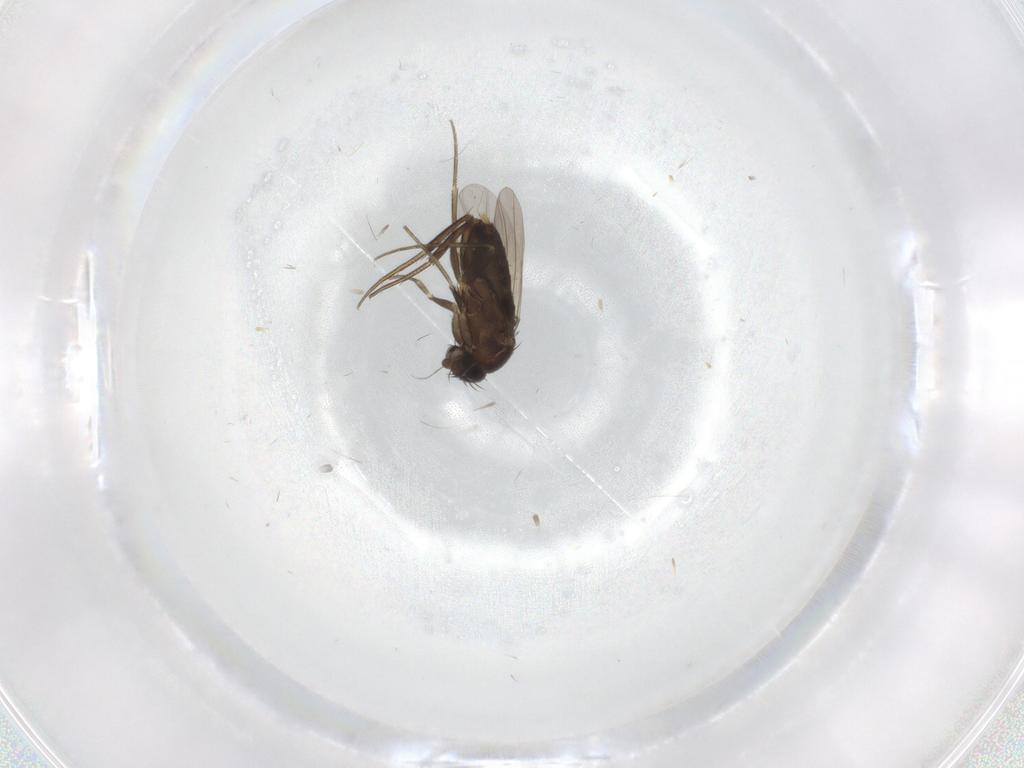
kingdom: Animalia
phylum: Arthropoda
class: Insecta
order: Diptera
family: Phoridae
